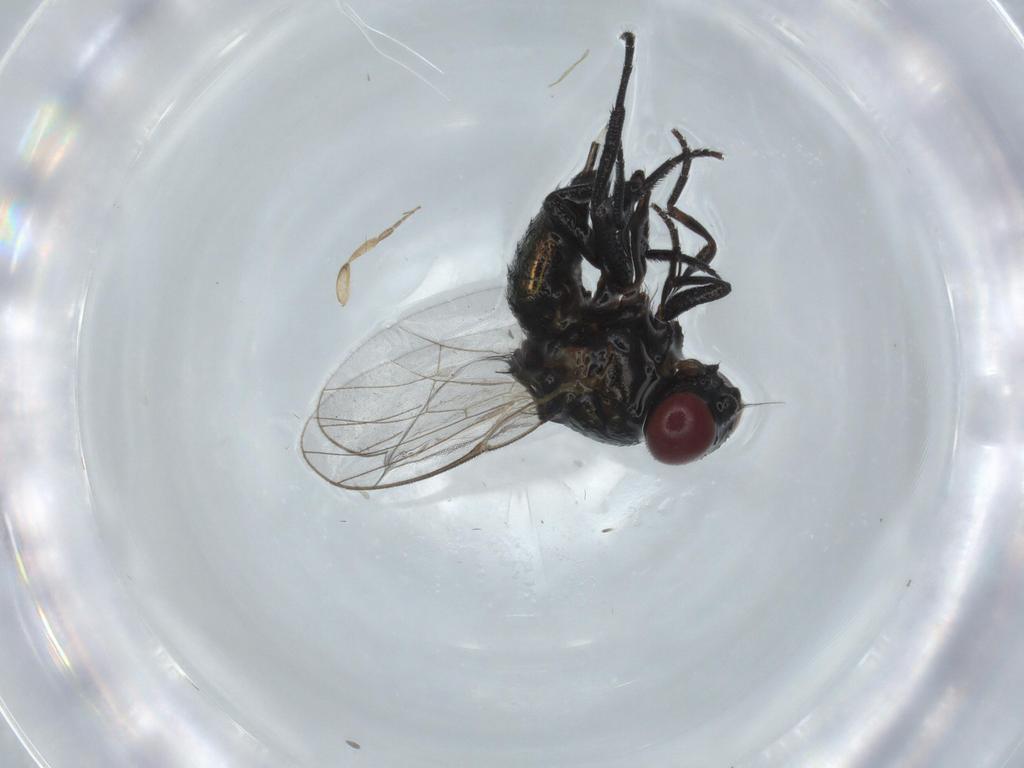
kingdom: Animalia
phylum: Arthropoda
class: Insecta
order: Diptera
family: Agromyzidae
